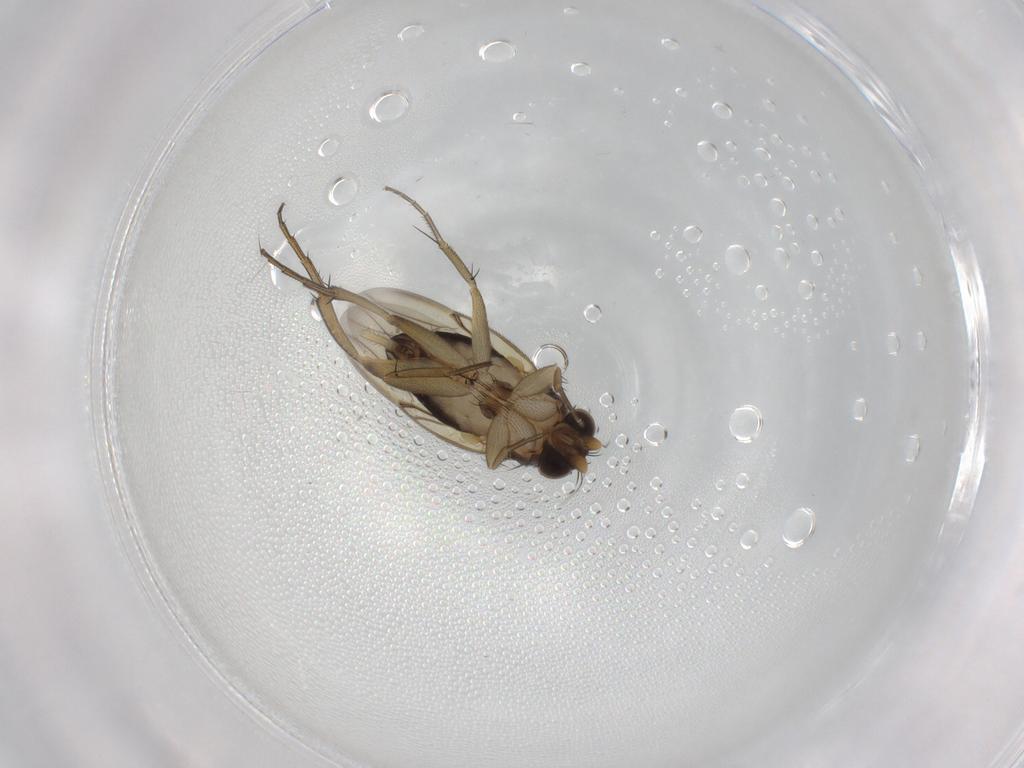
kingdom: Animalia
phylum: Arthropoda
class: Insecta
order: Diptera
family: Phoridae
